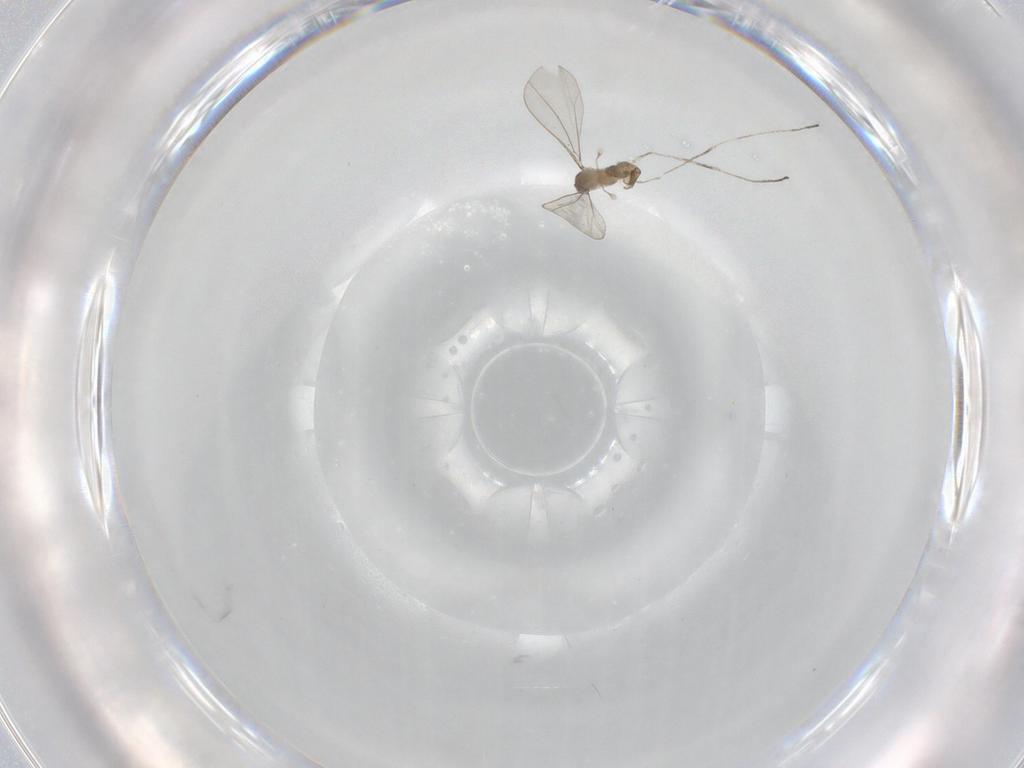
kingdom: Animalia
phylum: Arthropoda
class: Insecta
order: Diptera
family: Cecidomyiidae
